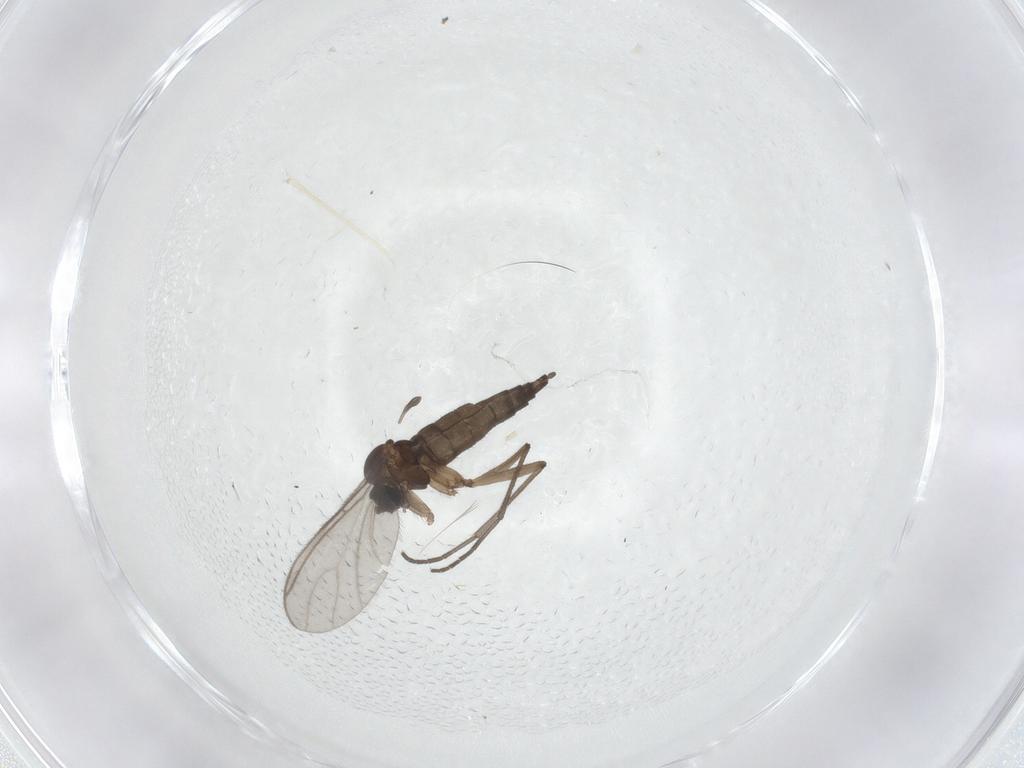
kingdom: Animalia
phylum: Arthropoda
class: Insecta
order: Diptera
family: Sciaridae
